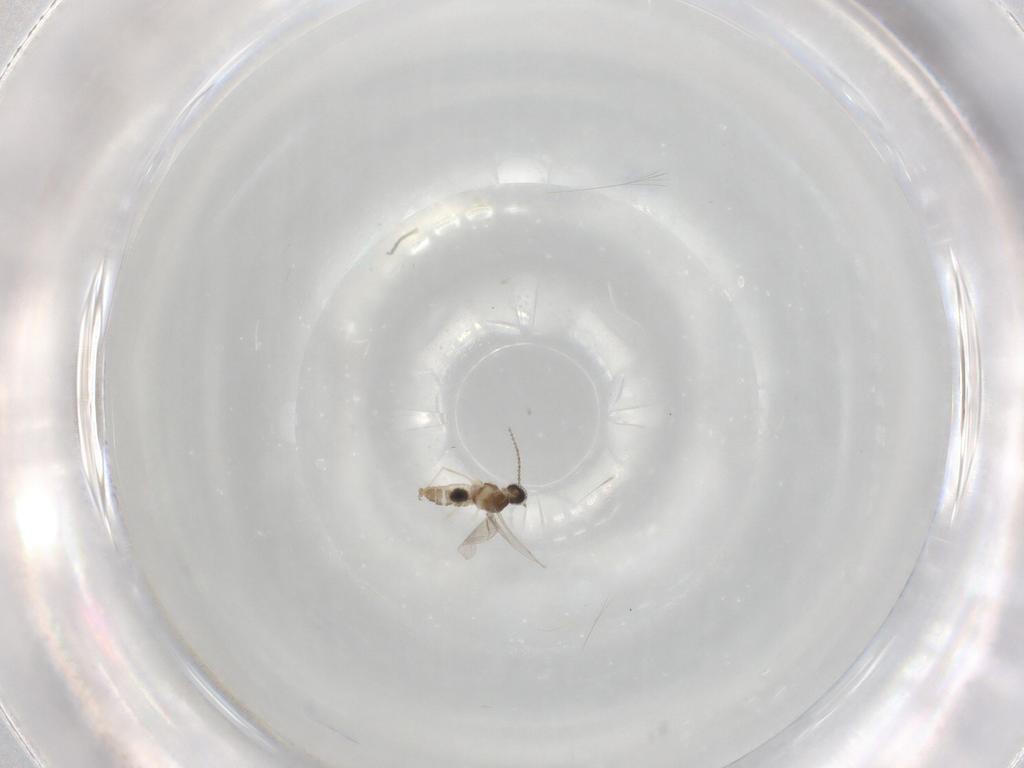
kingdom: Animalia
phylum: Arthropoda
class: Insecta
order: Diptera
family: Cecidomyiidae
